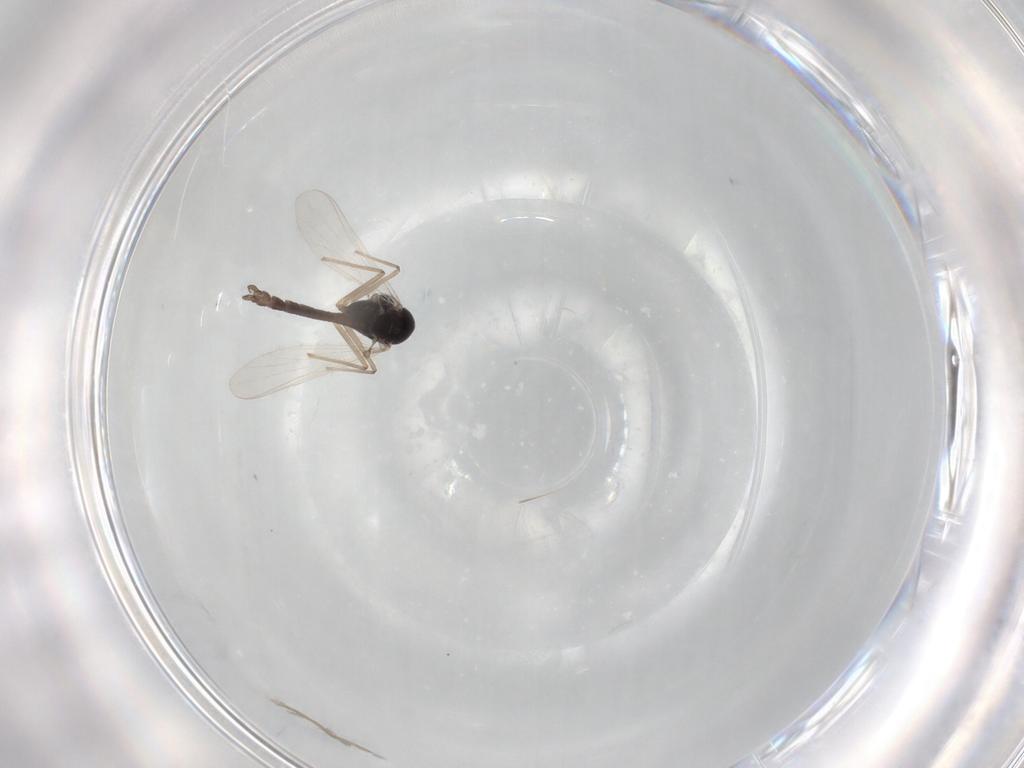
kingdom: Animalia
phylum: Arthropoda
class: Insecta
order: Diptera
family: Chironomidae
